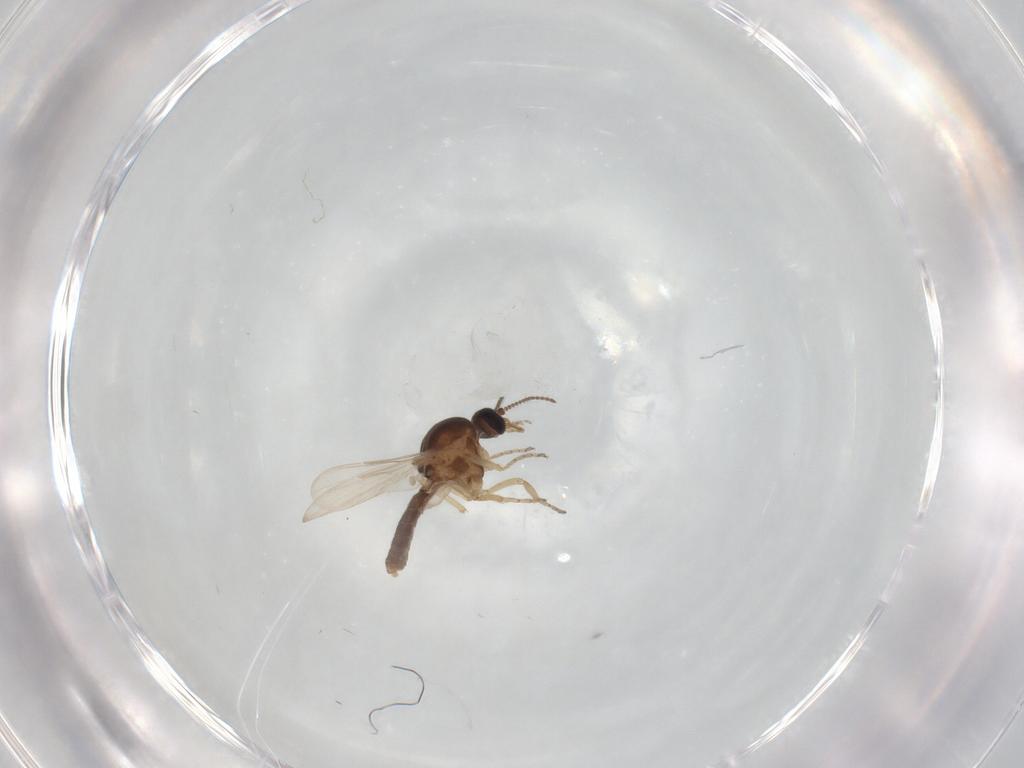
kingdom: Animalia
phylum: Arthropoda
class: Insecta
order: Diptera
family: Ceratopogonidae
